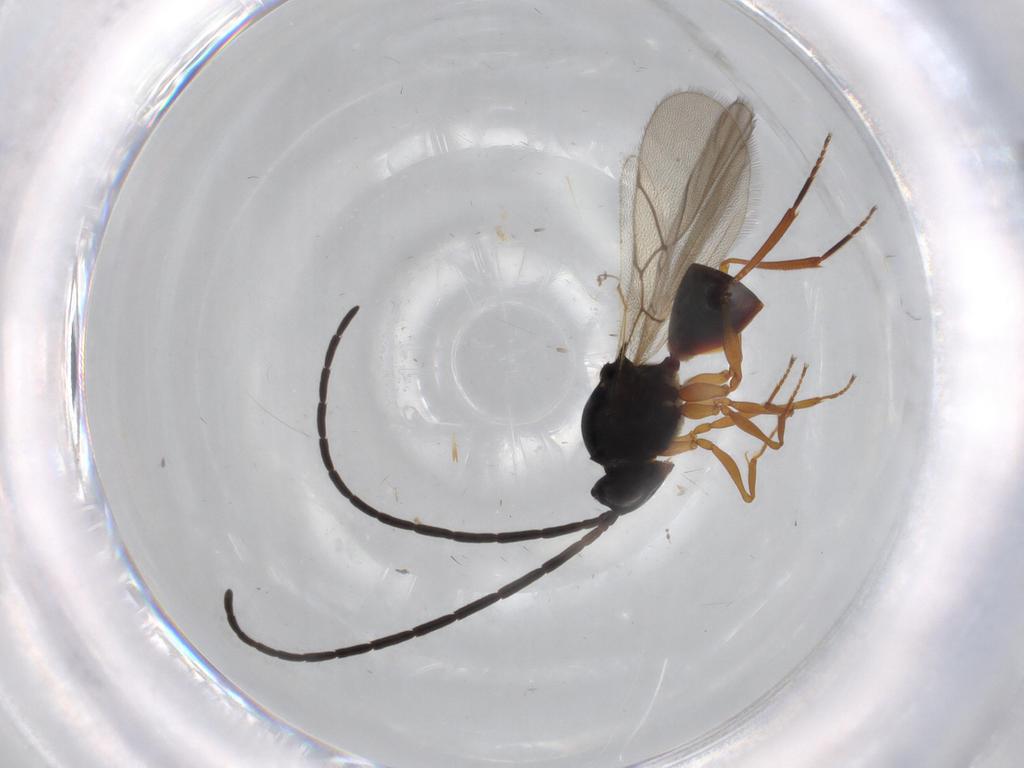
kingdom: Animalia
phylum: Arthropoda
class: Insecta
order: Hymenoptera
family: Figitidae
